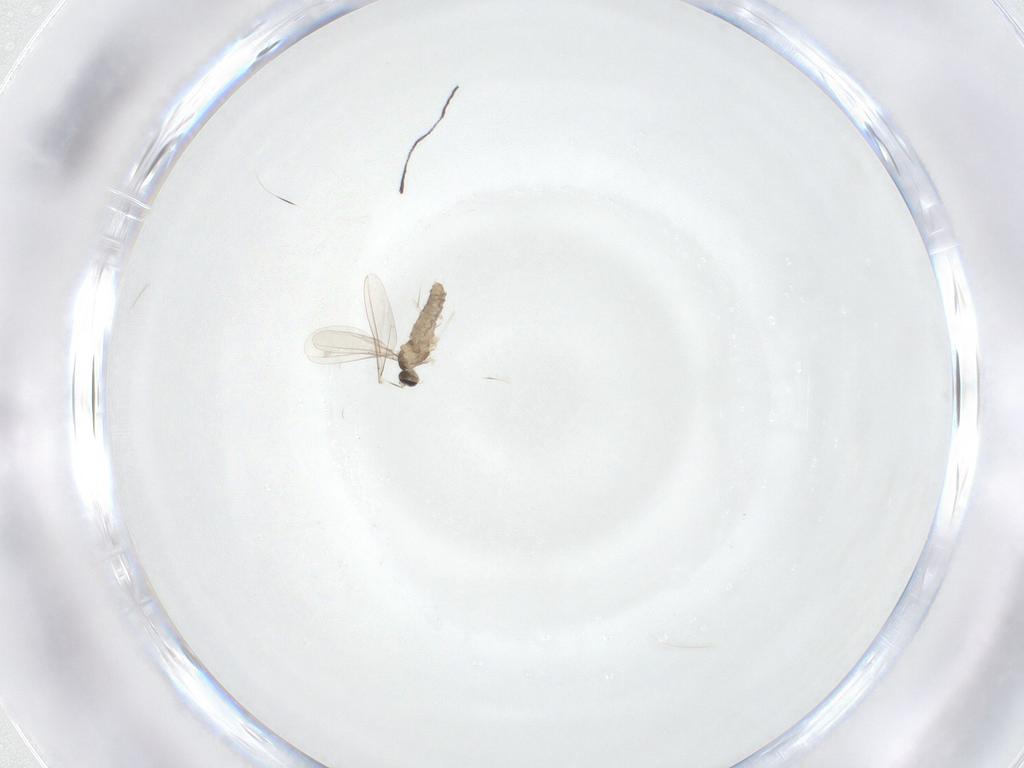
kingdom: Animalia
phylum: Arthropoda
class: Insecta
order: Diptera
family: Cecidomyiidae
